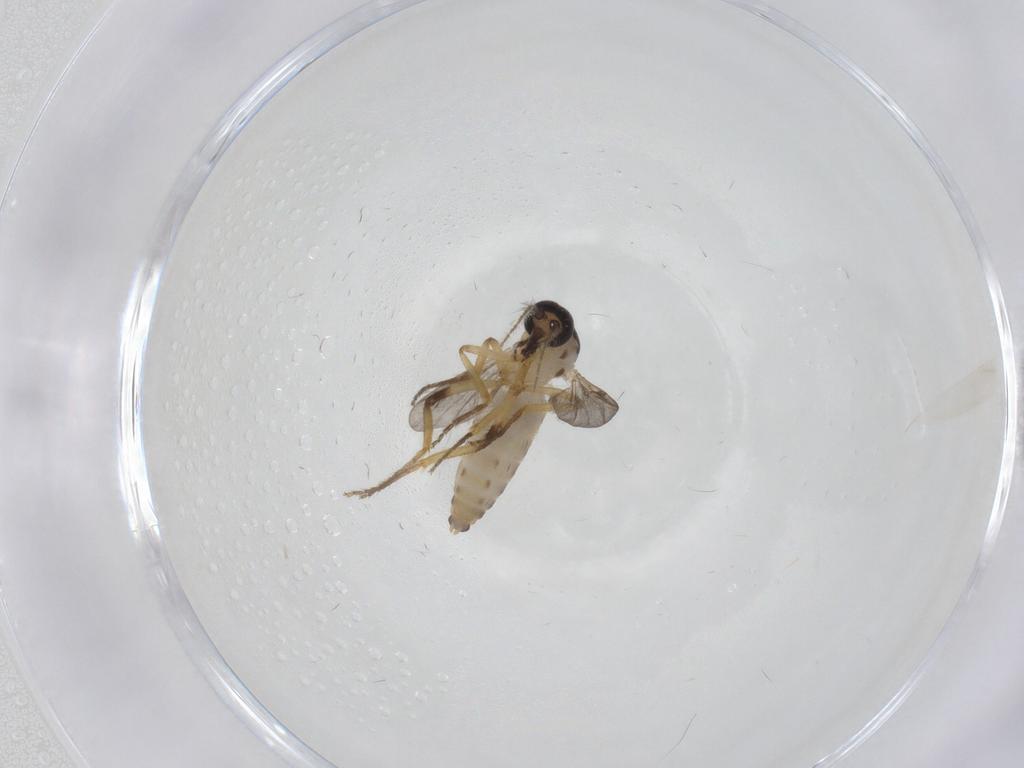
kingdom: Animalia
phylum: Arthropoda
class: Insecta
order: Diptera
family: Ceratopogonidae
